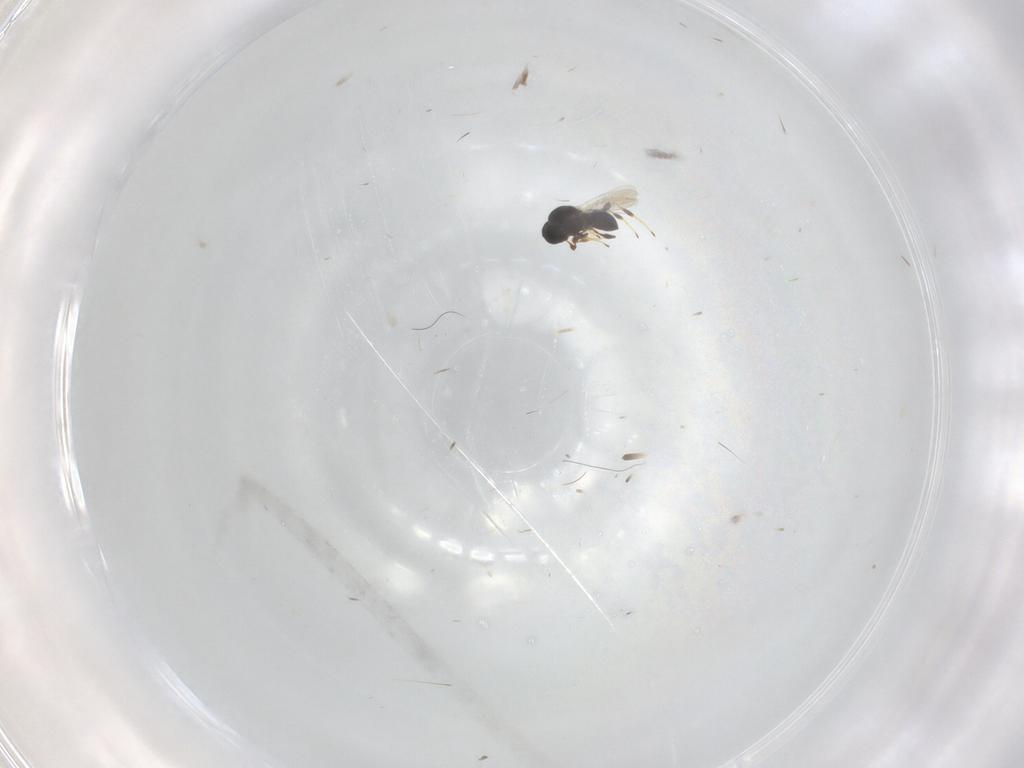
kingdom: Animalia
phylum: Arthropoda
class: Insecta
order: Hymenoptera
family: Platygastridae
